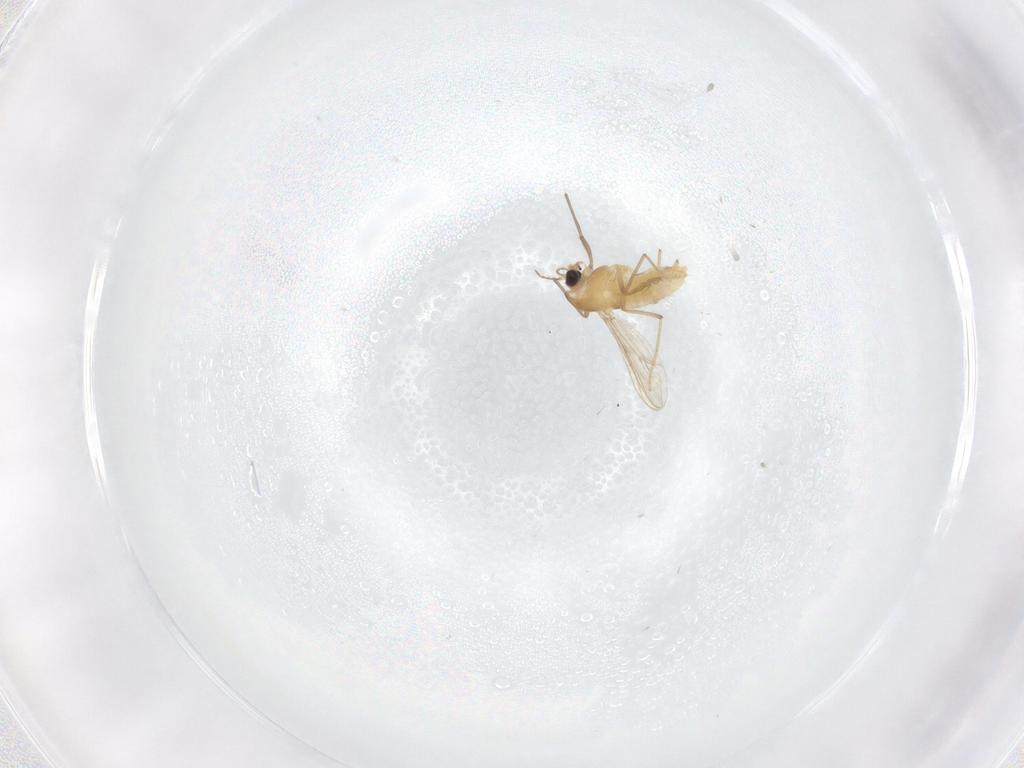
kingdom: Animalia
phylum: Arthropoda
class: Insecta
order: Diptera
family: Chironomidae
